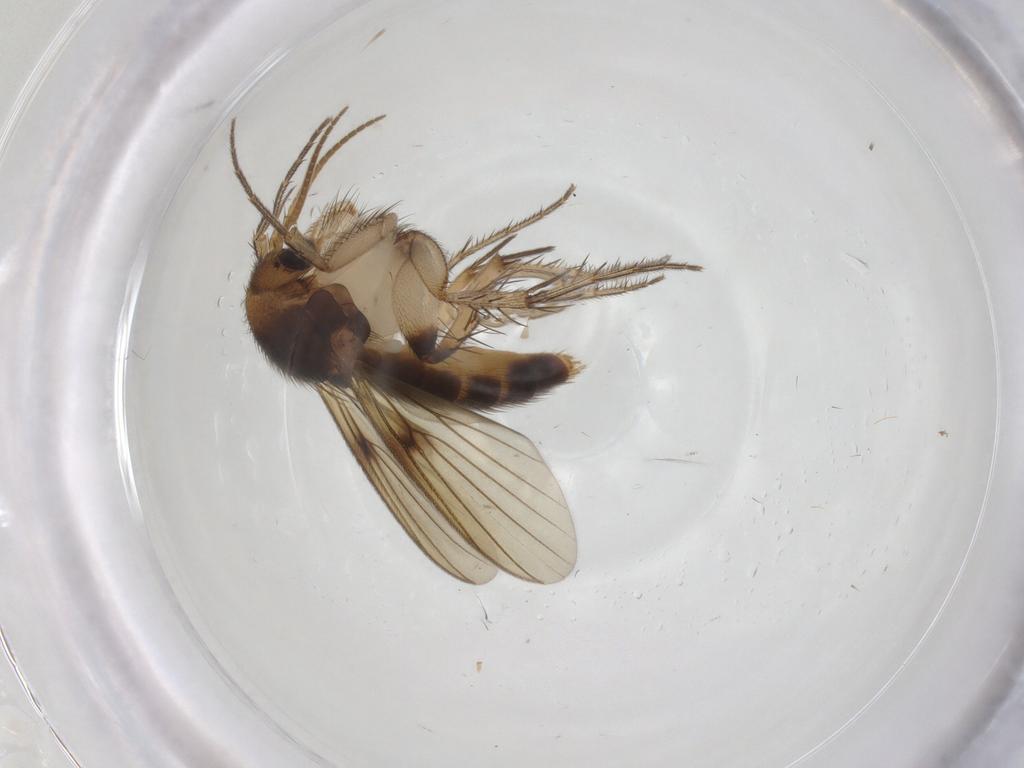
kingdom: Animalia
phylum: Arthropoda
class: Insecta
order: Diptera
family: Mycetophilidae
